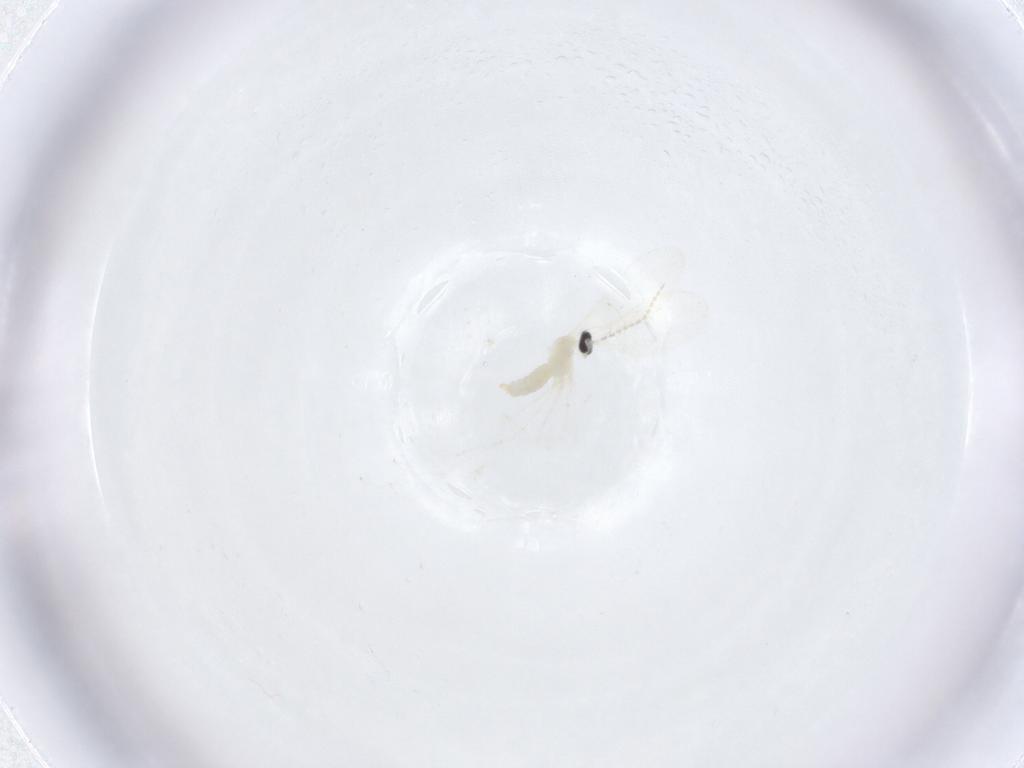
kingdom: Animalia
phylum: Arthropoda
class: Insecta
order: Diptera
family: Cecidomyiidae
